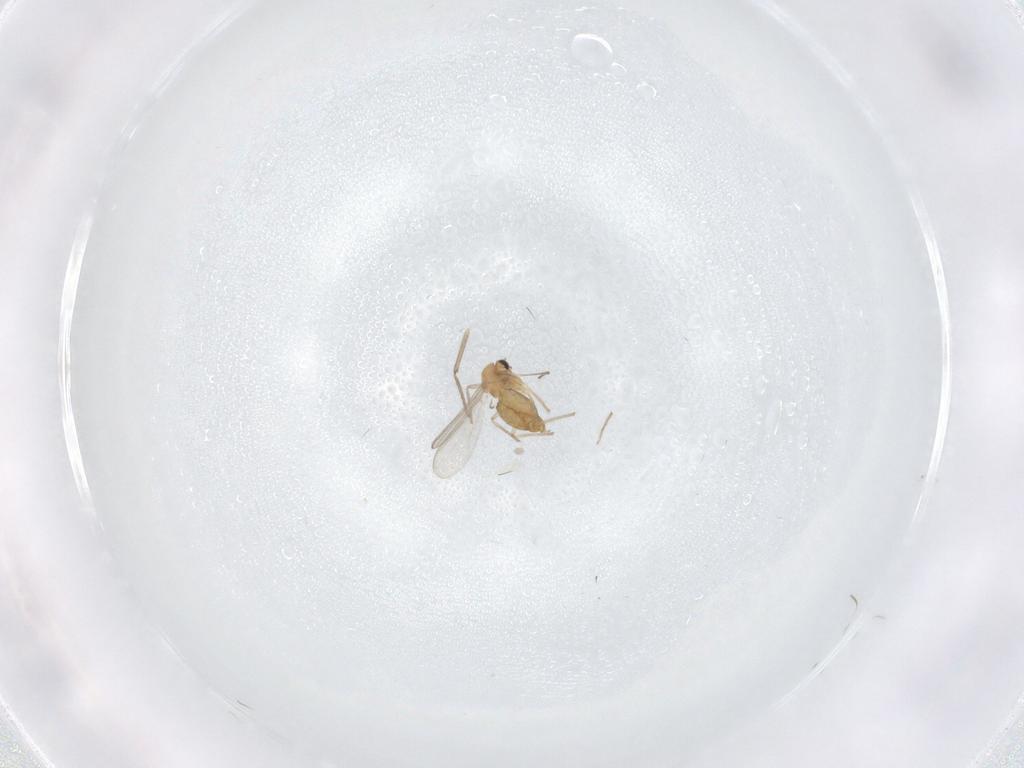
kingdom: Animalia
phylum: Arthropoda
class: Insecta
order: Diptera
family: Chironomidae
